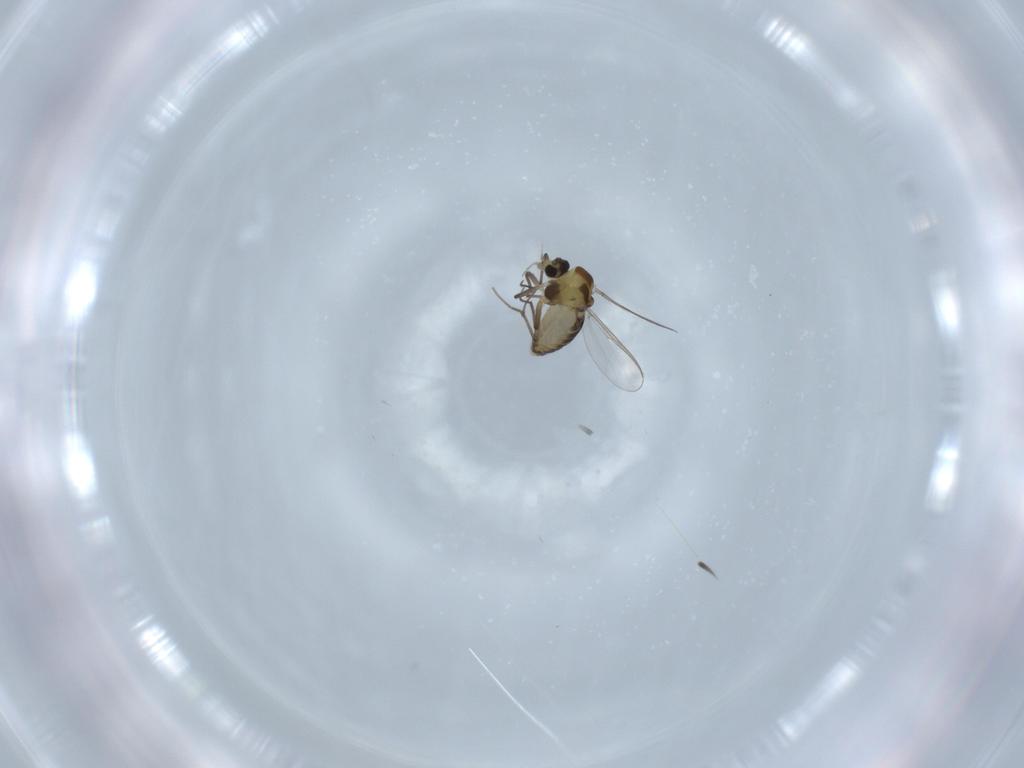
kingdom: Animalia
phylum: Arthropoda
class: Insecta
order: Diptera
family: Chironomidae
